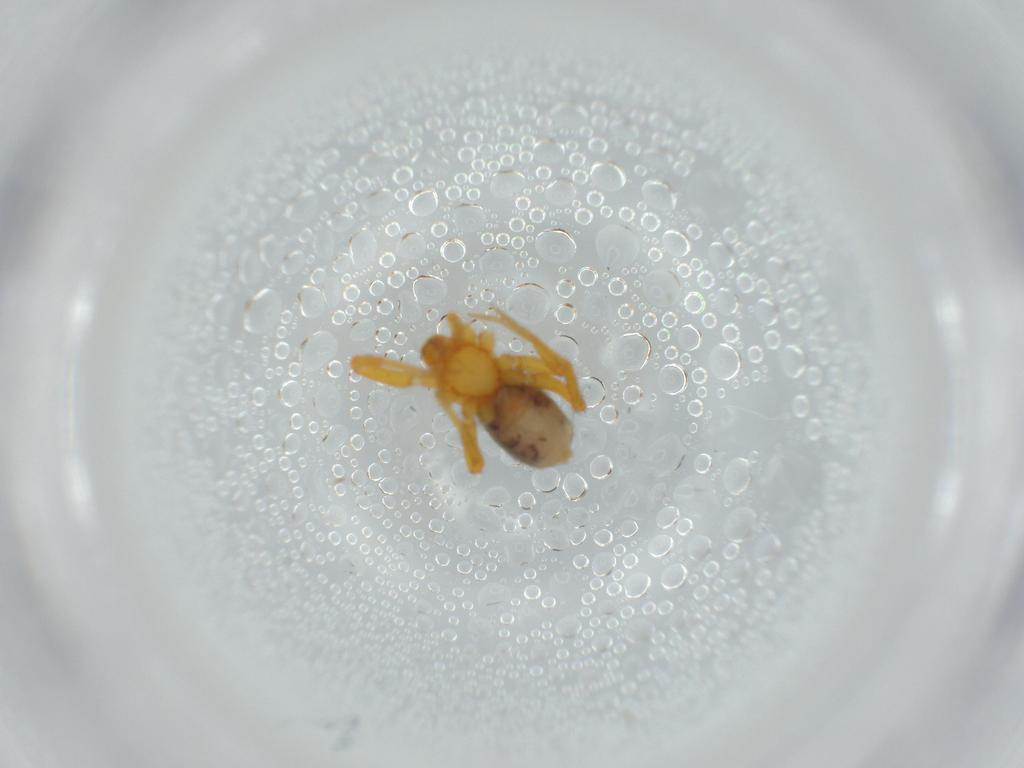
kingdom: Animalia
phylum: Arthropoda
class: Arachnida
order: Araneae
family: Oonopidae
